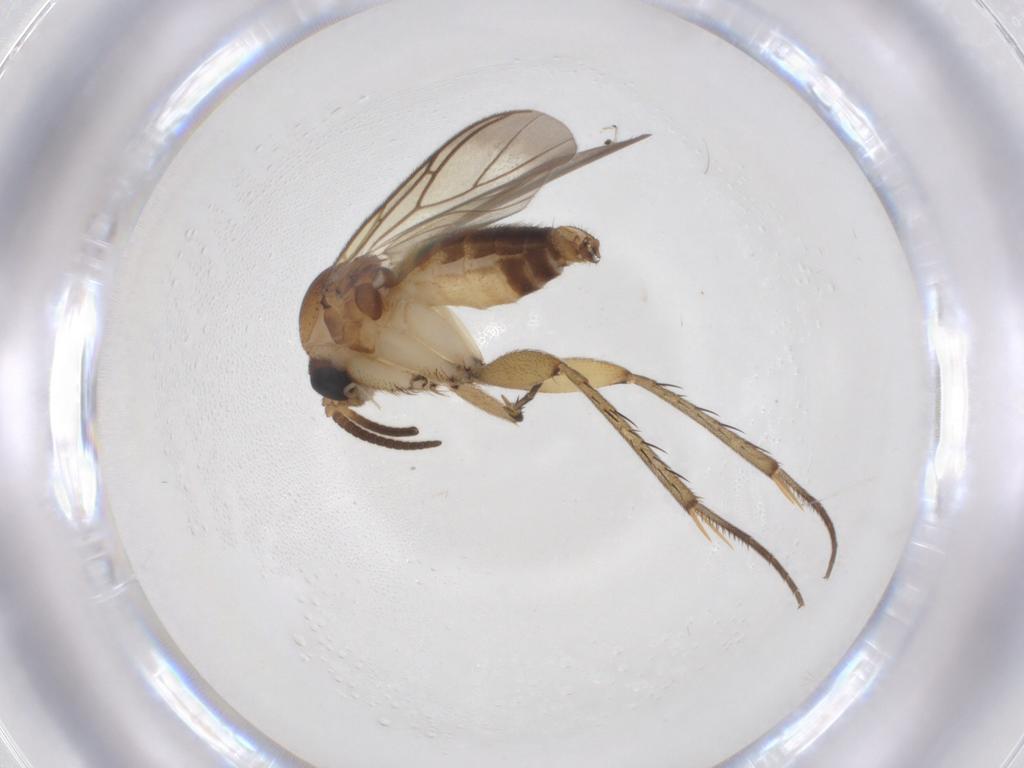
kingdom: Animalia
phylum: Arthropoda
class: Insecta
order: Diptera
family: Mycetophilidae
